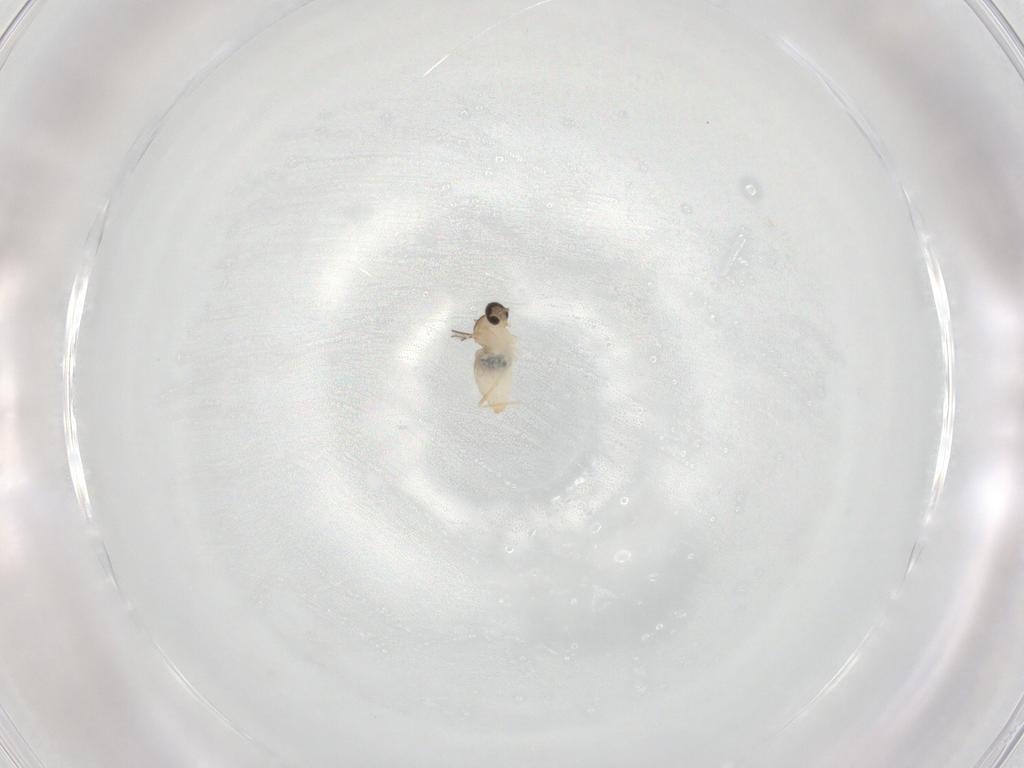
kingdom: Animalia
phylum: Arthropoda
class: Insecta
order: Diptera
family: Cecidomyiidae
